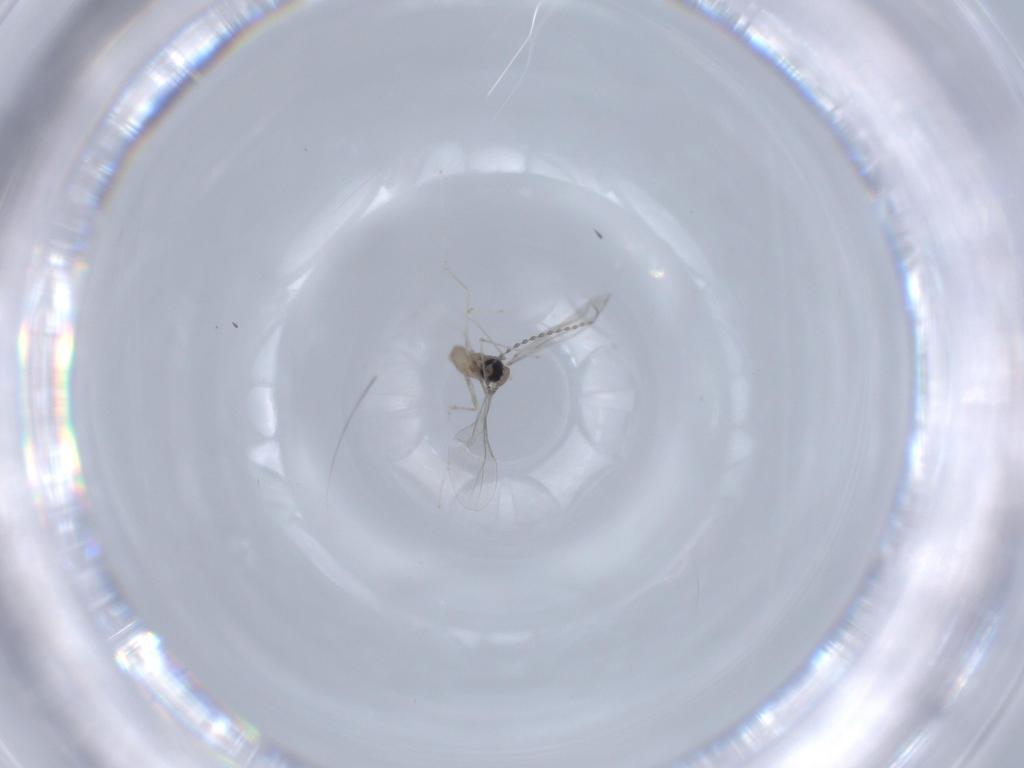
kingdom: Animalia
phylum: Arthropoda
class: Insecta
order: Diptera
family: Cecidomyiidae
